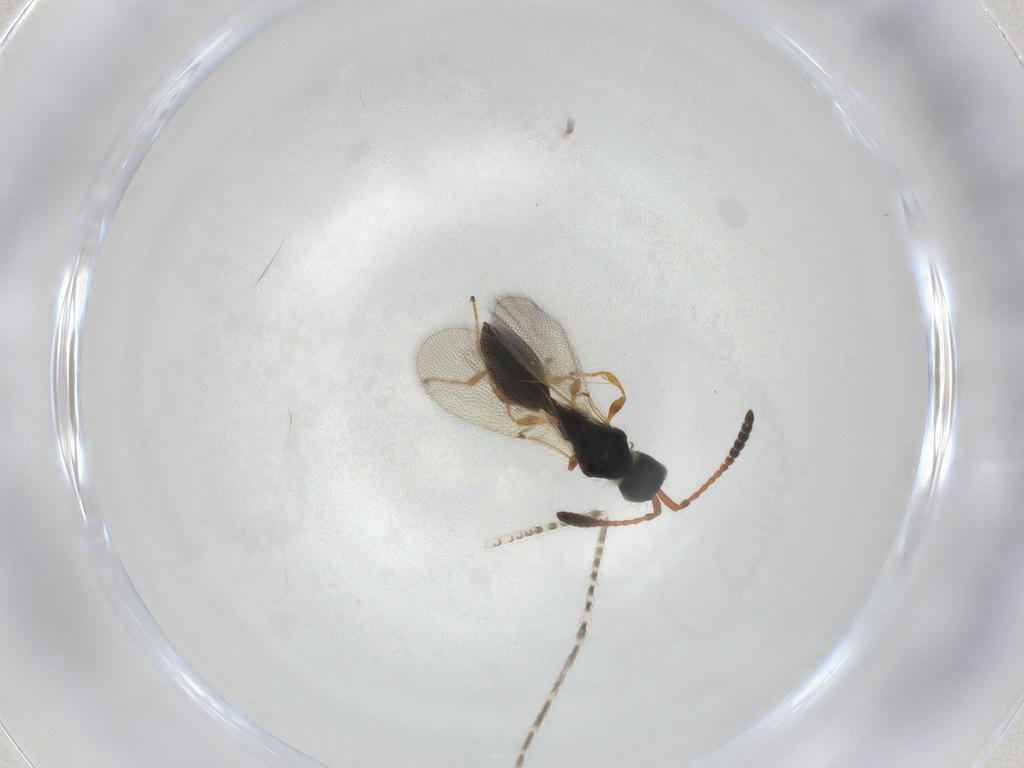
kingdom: Animalia
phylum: Arthropoda
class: Insecta
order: Hymenoptera
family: Diapriidae
